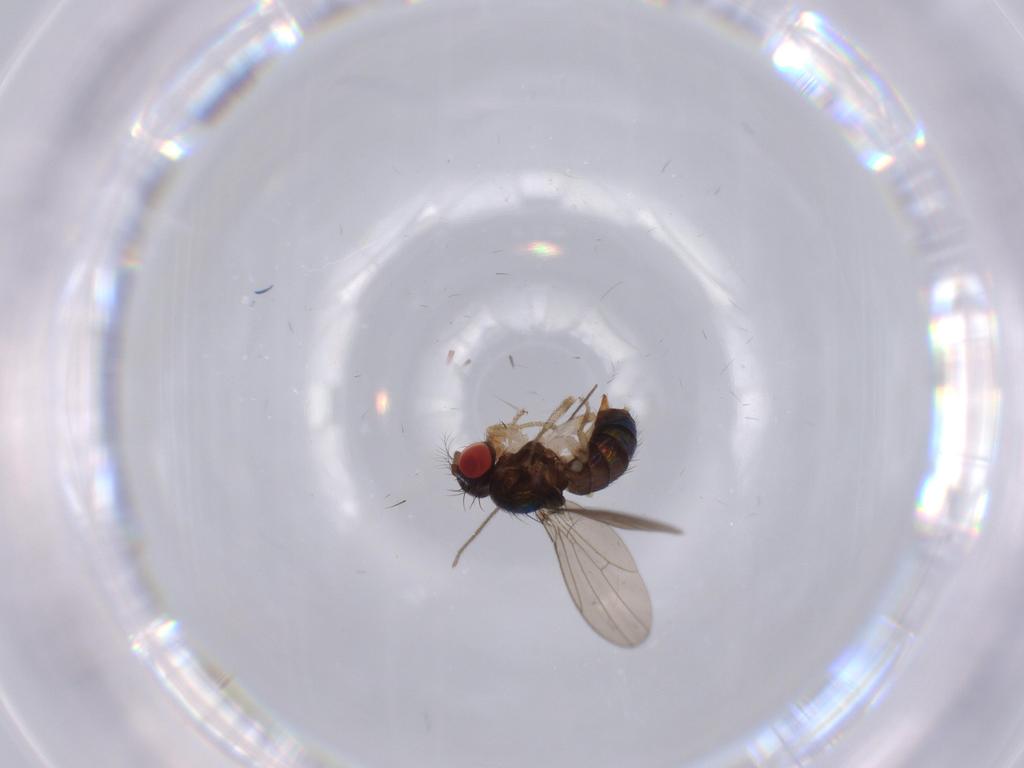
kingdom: Animalia
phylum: Arthropoda
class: Insecta
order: Diptera
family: Drosophilidae
